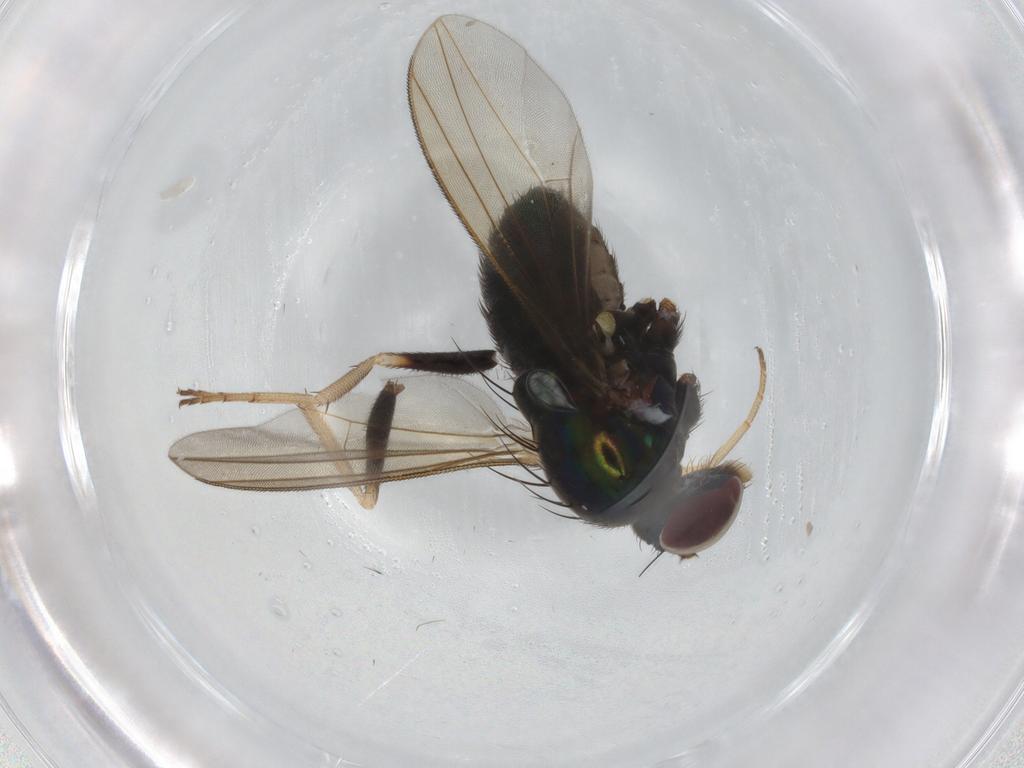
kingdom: Animalia
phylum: Arthropoda
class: Insecta
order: Diptera
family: Dolichopodidae
